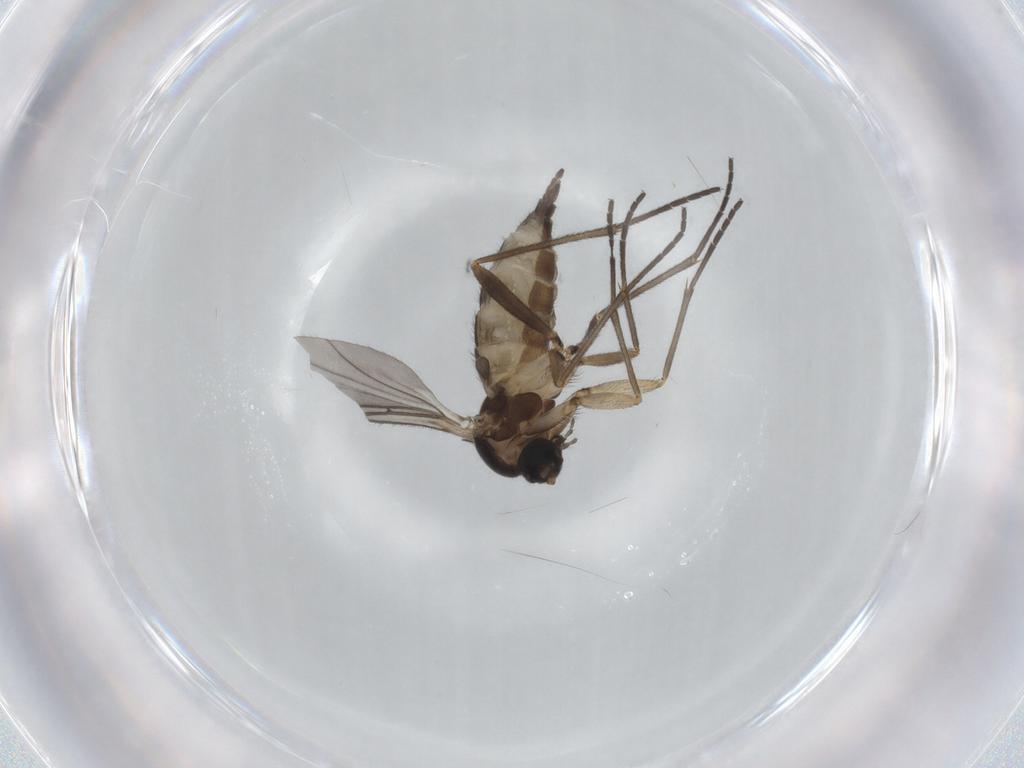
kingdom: Animalia
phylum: Arthropoda
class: Insecta
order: Diptera
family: Sciaridae
